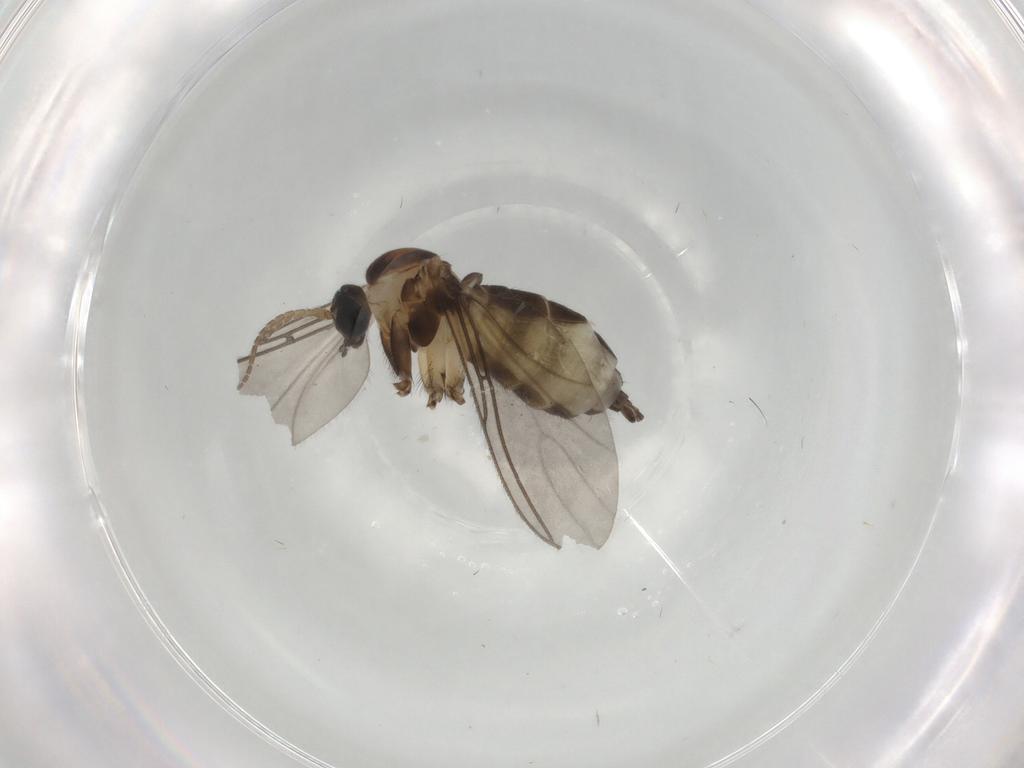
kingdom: Animalia
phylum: Arthropoda
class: Insecta
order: Diptera
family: Sciaridae
